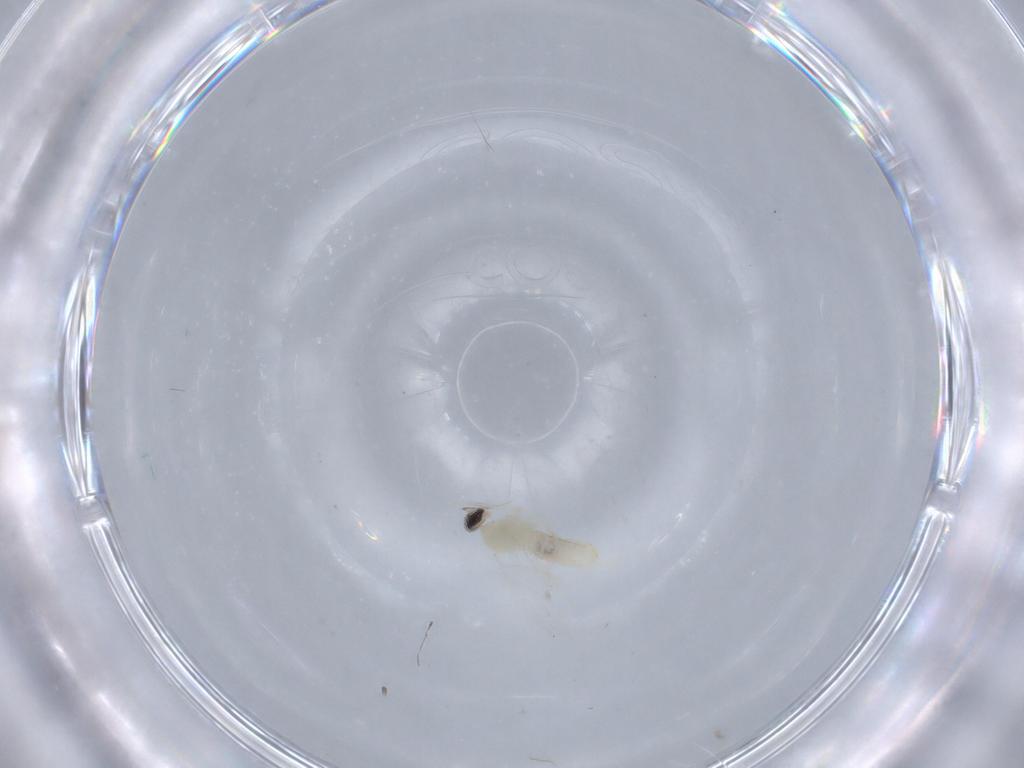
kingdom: Animalia
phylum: Arthropoda
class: Insecta
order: Diptera
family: Cecidomyiidae
